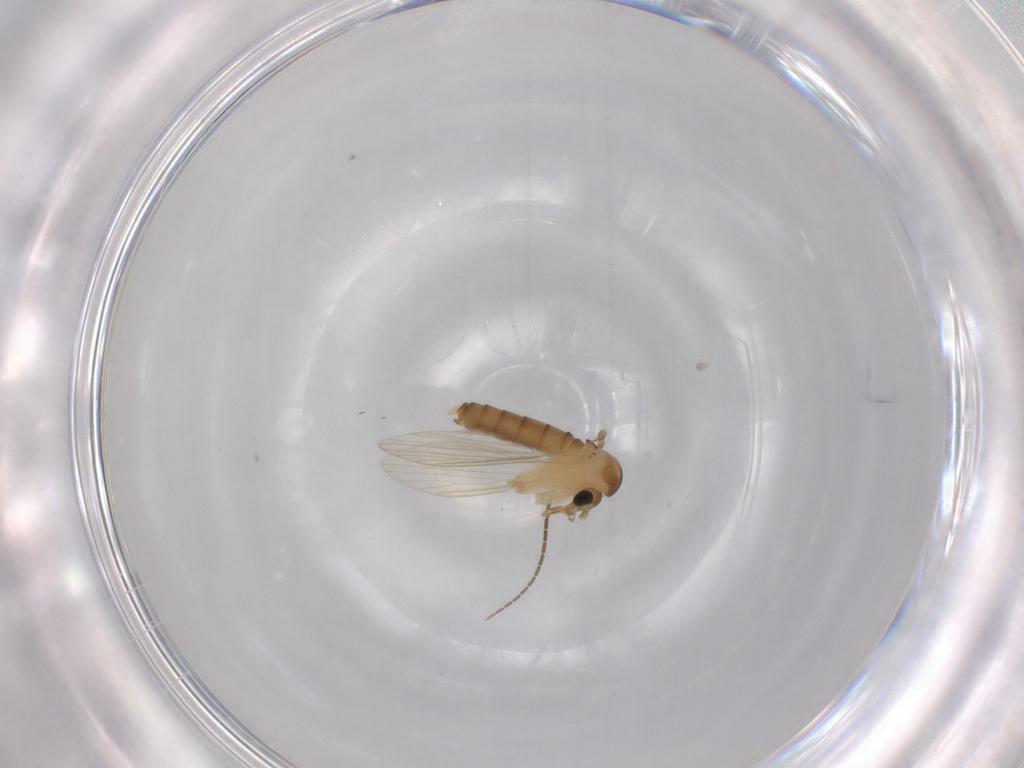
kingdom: Animalia
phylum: Arthropoda
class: Insecta
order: Diptera
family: Psychodidae
